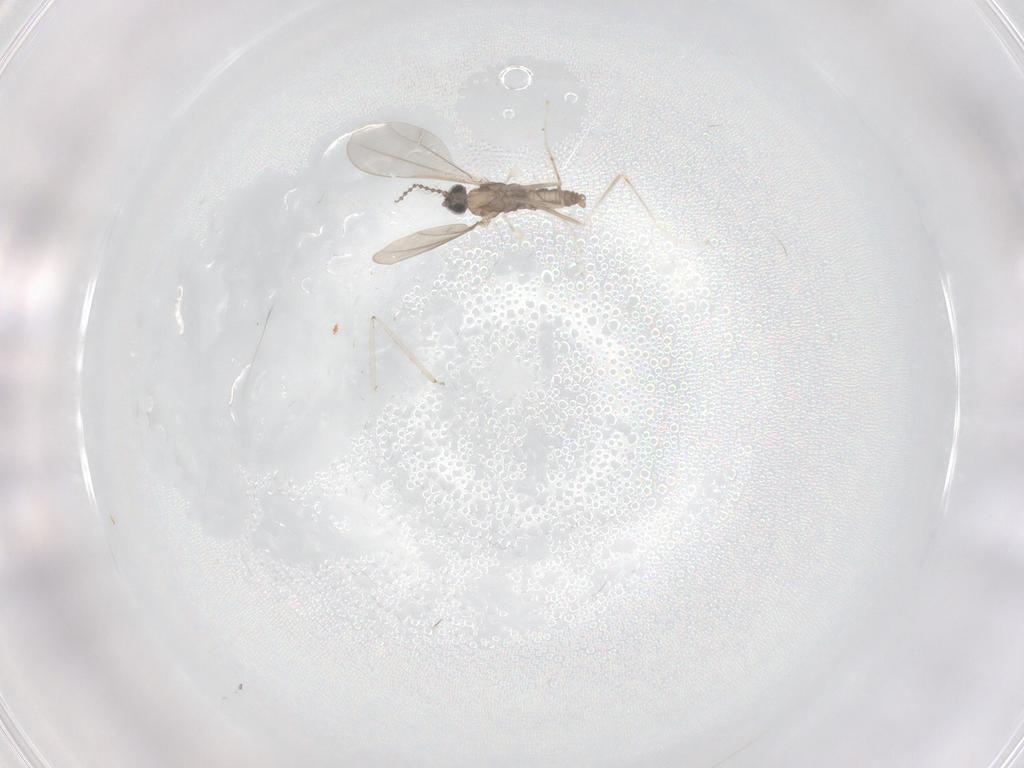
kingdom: Animalia
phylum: Arthropoda
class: Insecta
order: Diptera
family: Cecidomyiidae
